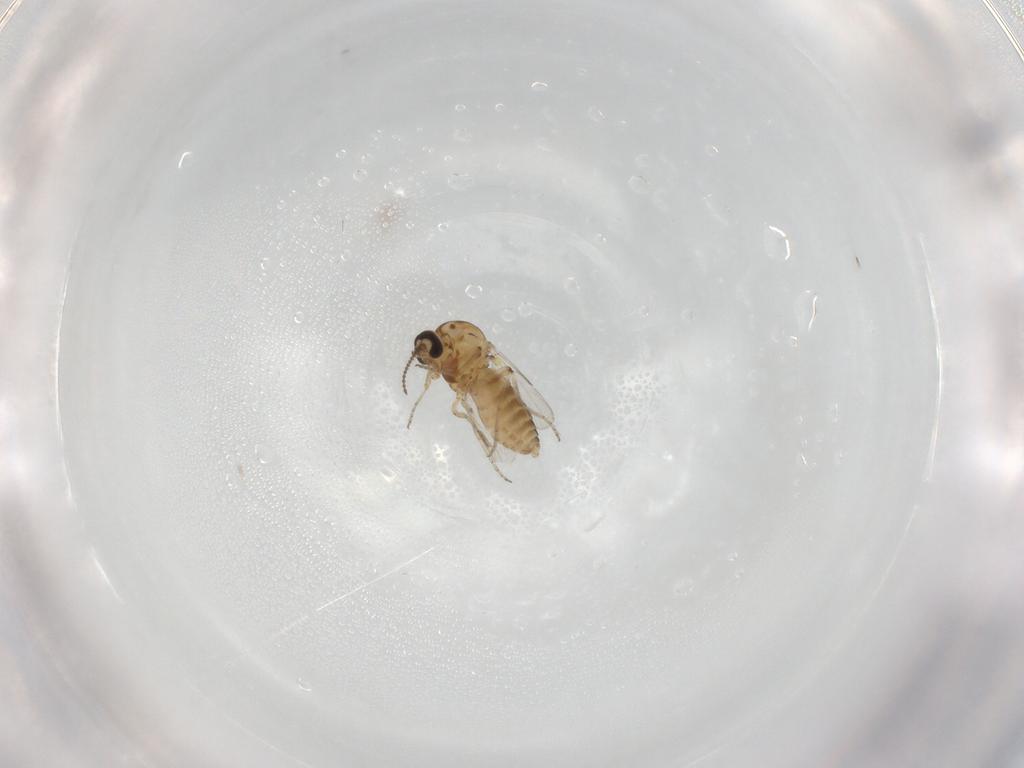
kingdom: Animalia
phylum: Arthropoda
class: Insecta
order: Diptera
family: Ceratopogonidae
